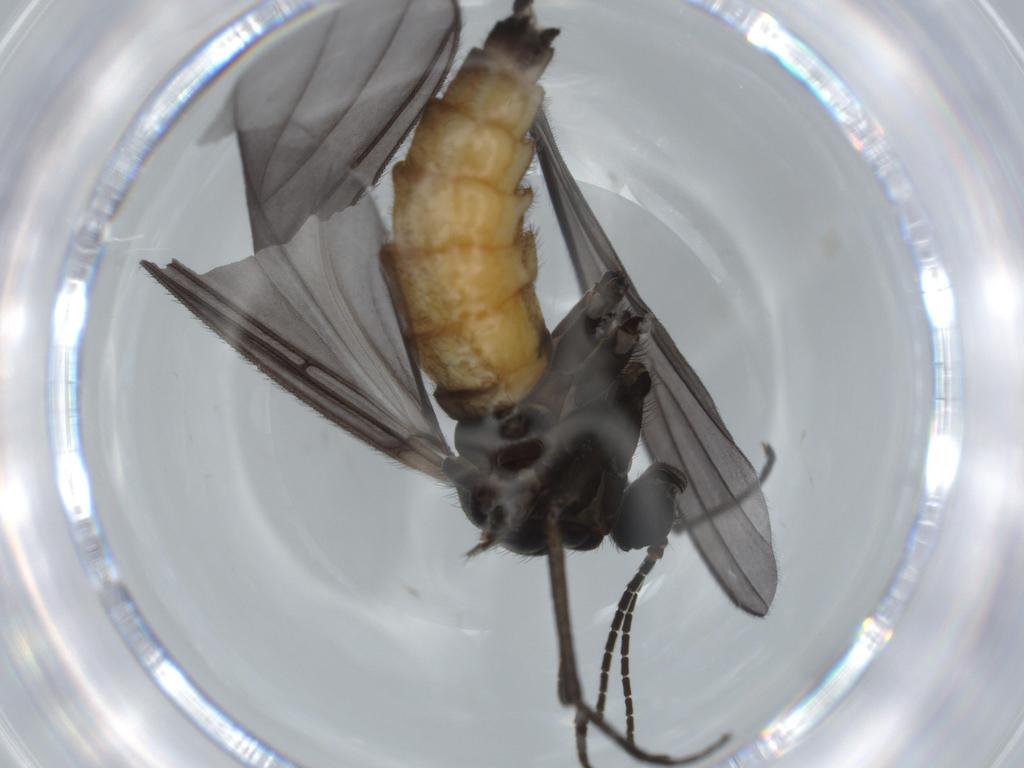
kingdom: Animalia
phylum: Arthropoda
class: Insecta
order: Diptera
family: Sciaridae
